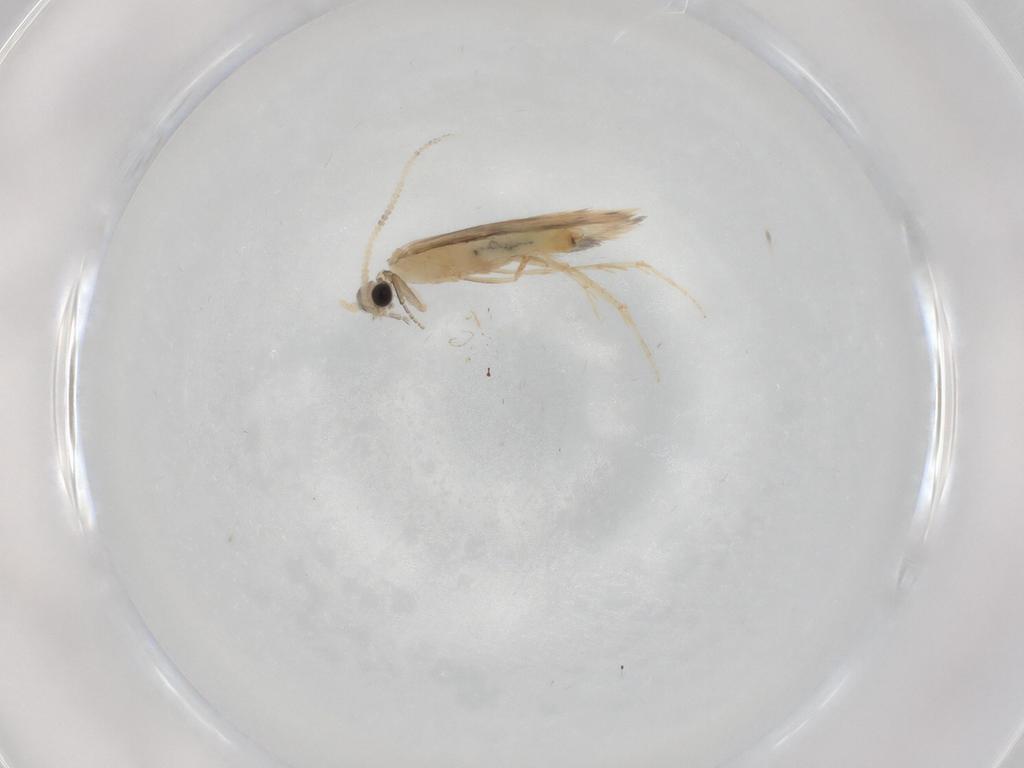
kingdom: Animalia
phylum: Arthropoda
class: Insecta
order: Trichoptera
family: Hydroptilidae
